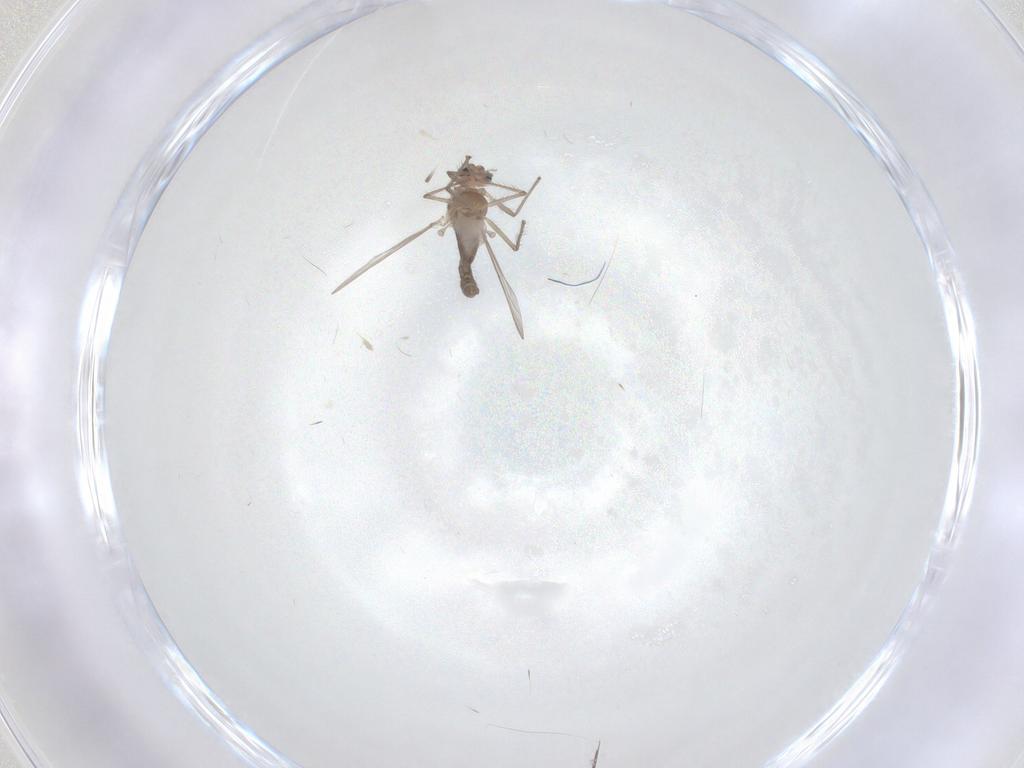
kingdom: Animalia
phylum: Arthropoda
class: Insecta
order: Diptera
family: Chironomidae
